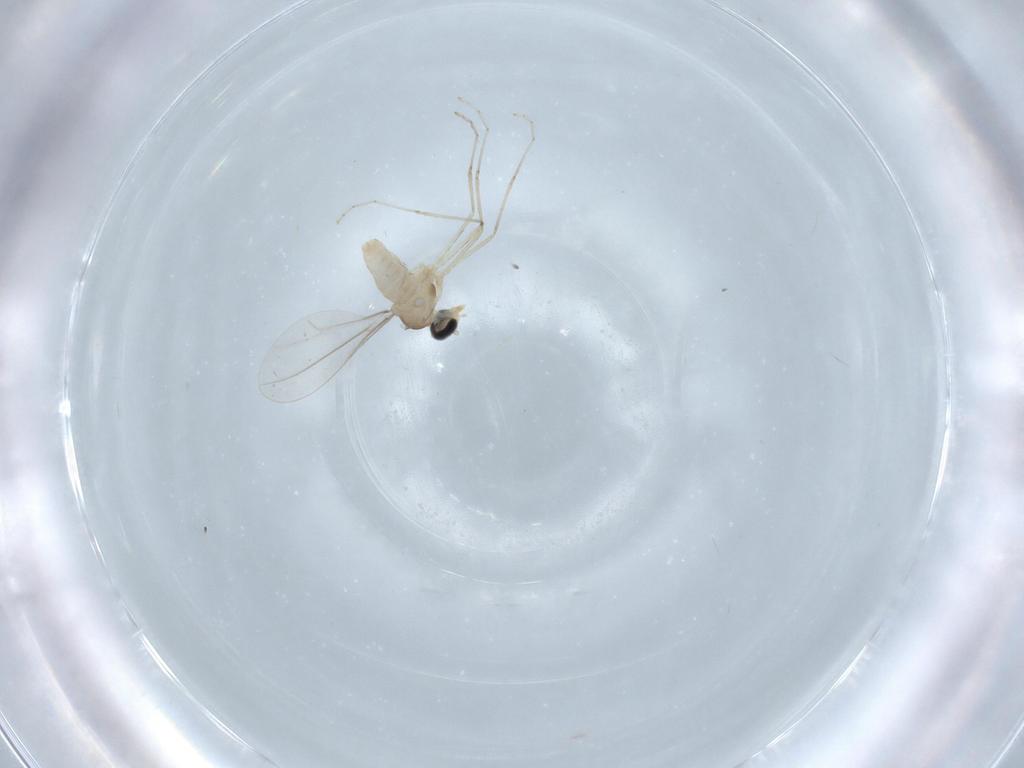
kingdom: Animalia
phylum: Arthropoda
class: Insecta
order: Diptera
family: Cecidomyiidae
